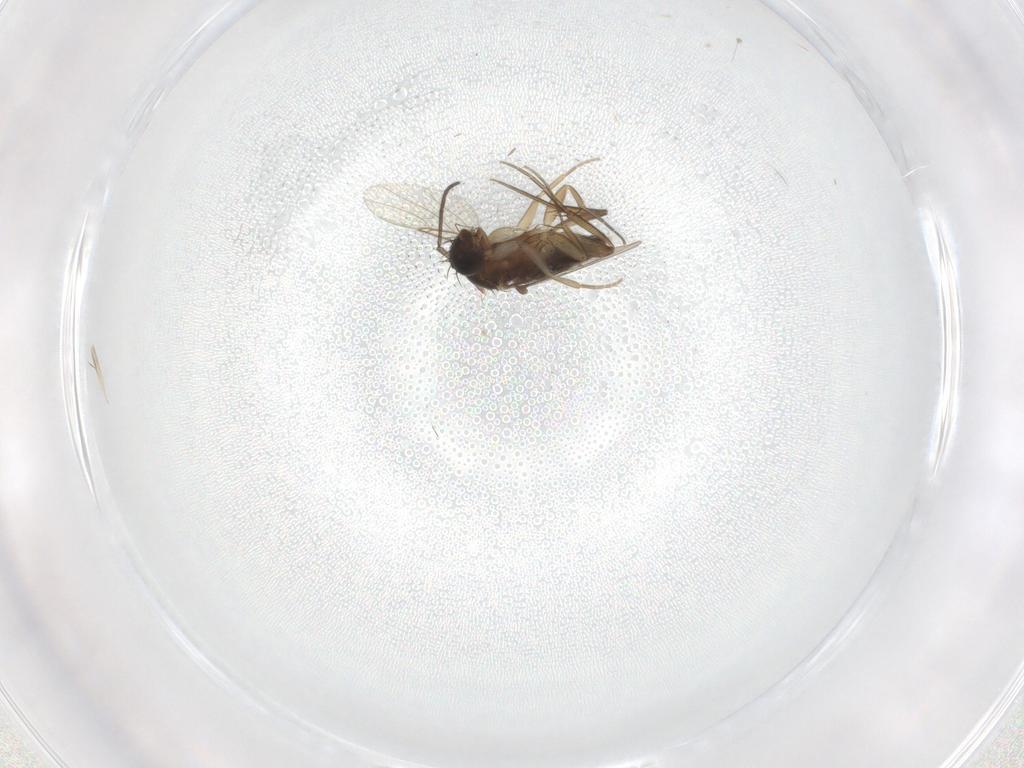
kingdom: Animalia
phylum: Arthropoda
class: Insecta
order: Diptera
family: Phoridae
